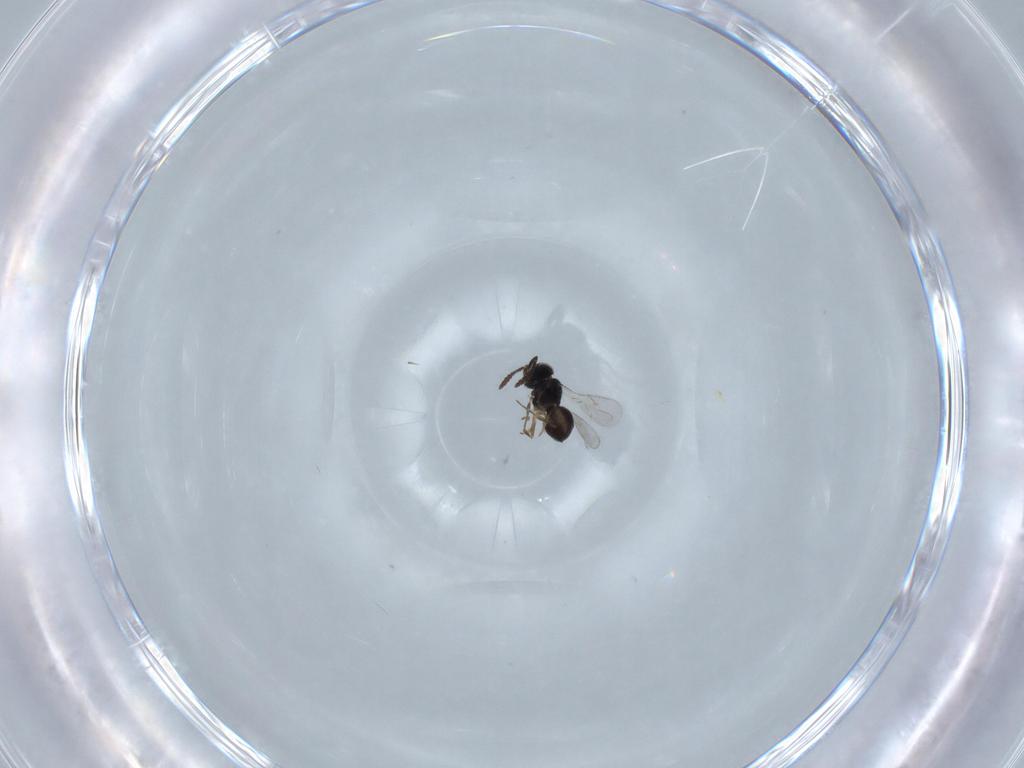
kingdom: Animalia
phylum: Arthropoda
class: Insecta
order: Hymenoptera
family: Scelionidae
